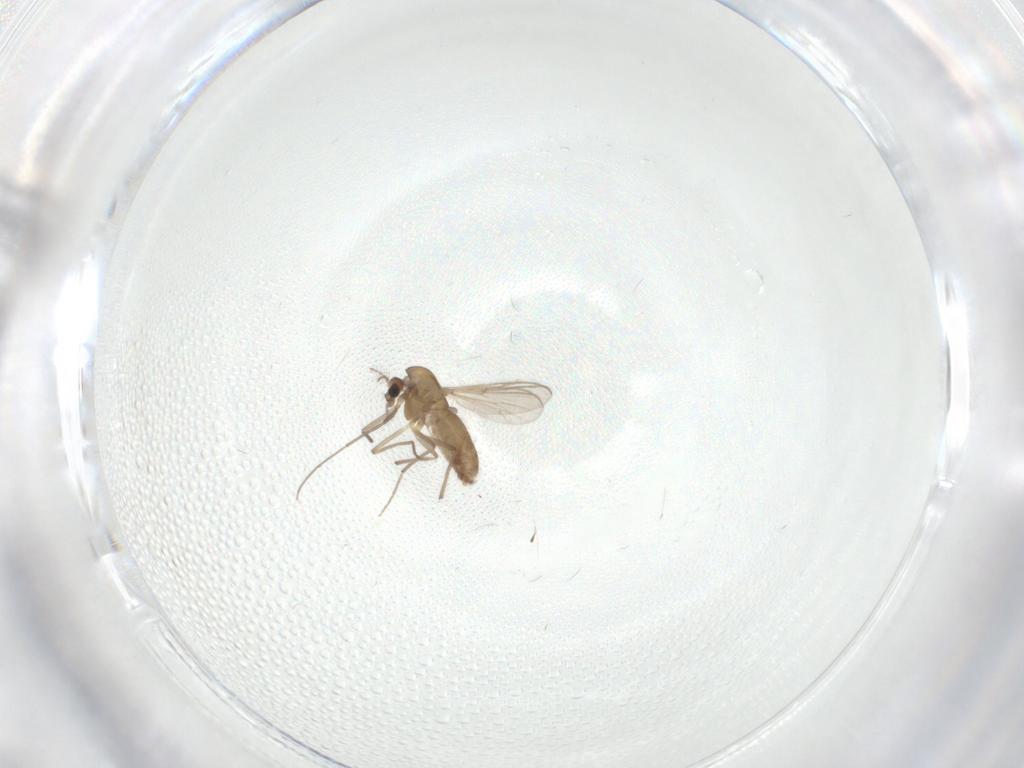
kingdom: Animalia
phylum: Arthropoda
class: Insecta
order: Diptera
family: Chironomidae
